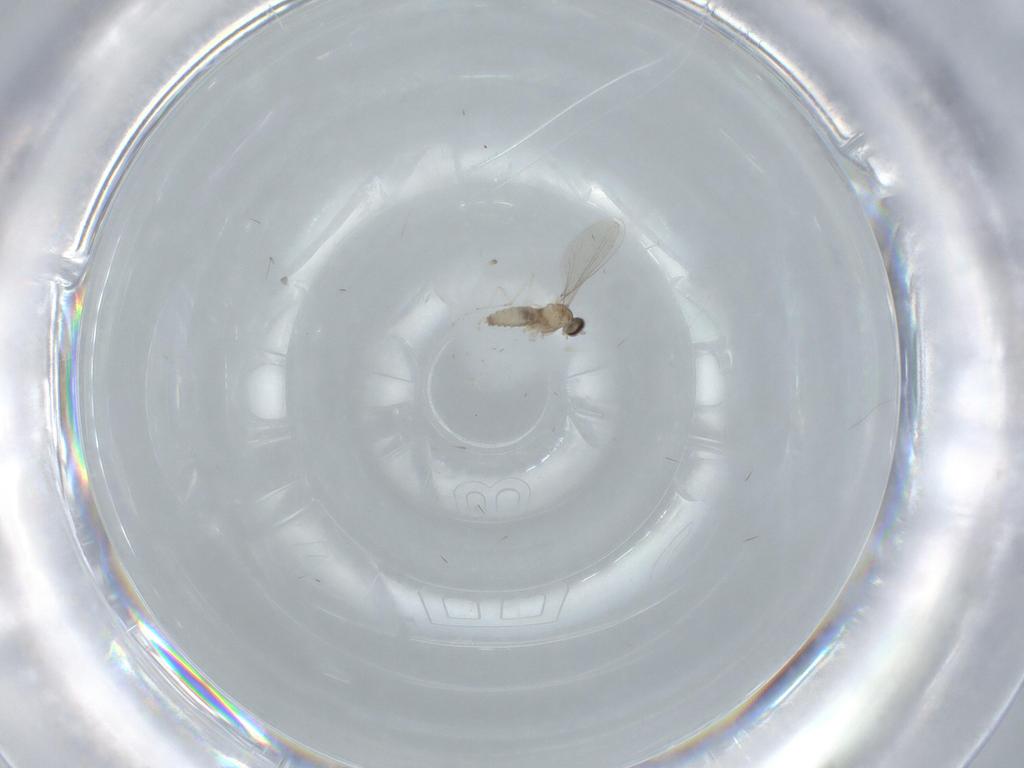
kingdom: Animalia
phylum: Arthropoda
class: Insecta
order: Diptera
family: Cecidomyiidae
